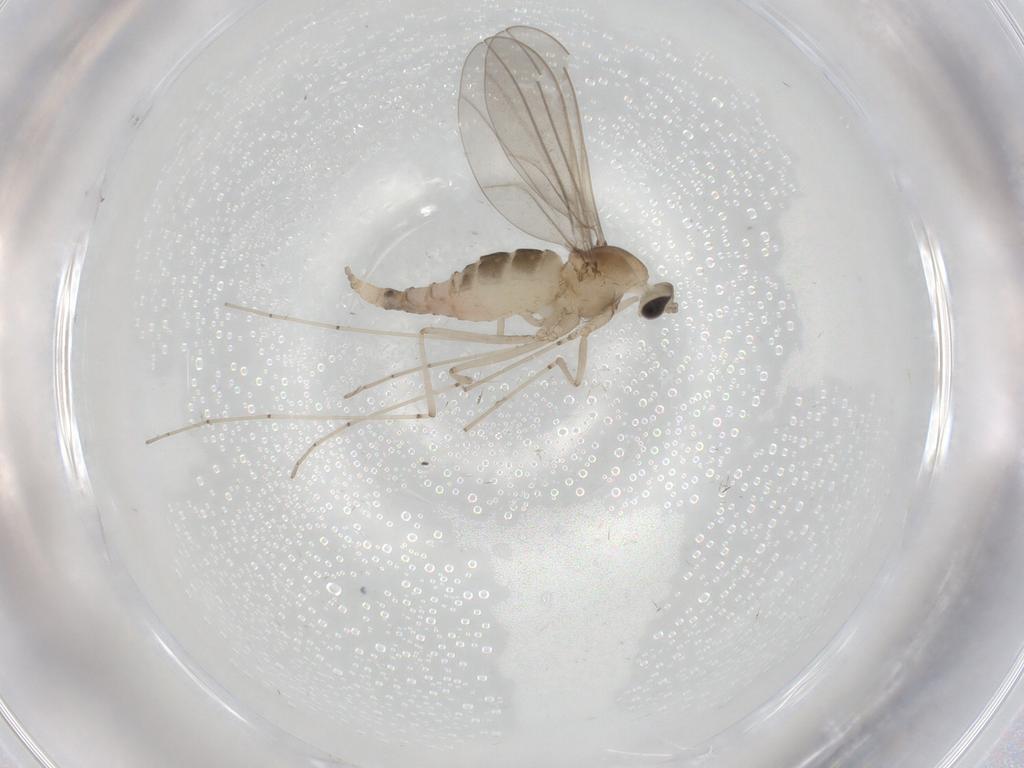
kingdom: Animalia
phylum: Arthropoda
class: Insecta
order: Diptera
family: Cecidomyiidae
